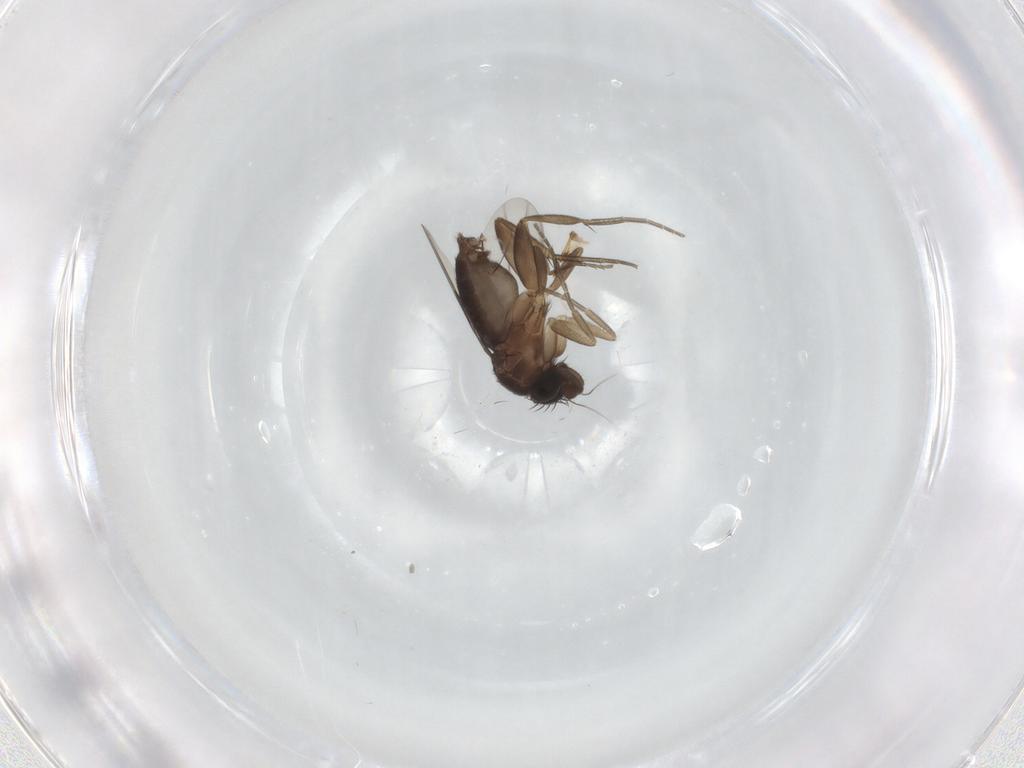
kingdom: Animalia
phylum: Arthropoda
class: Insecta
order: Diptera
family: Phoridae
